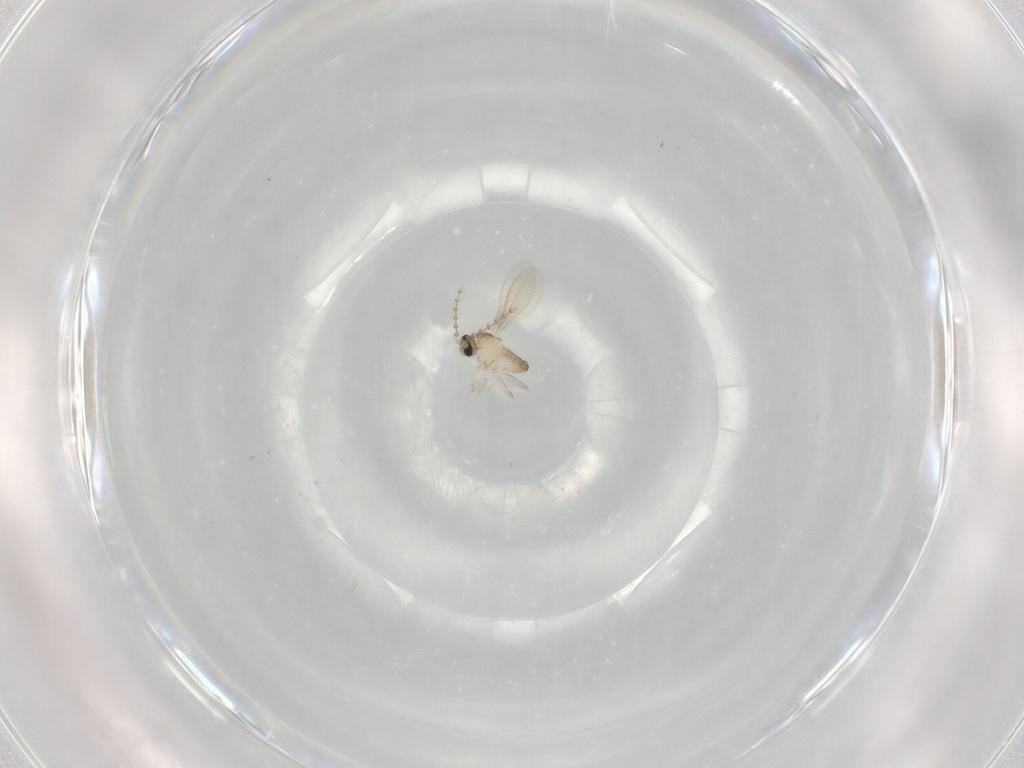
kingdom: Animalia
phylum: Arthropoda
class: Insecta
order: Diptera
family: Cecidomyiidae
